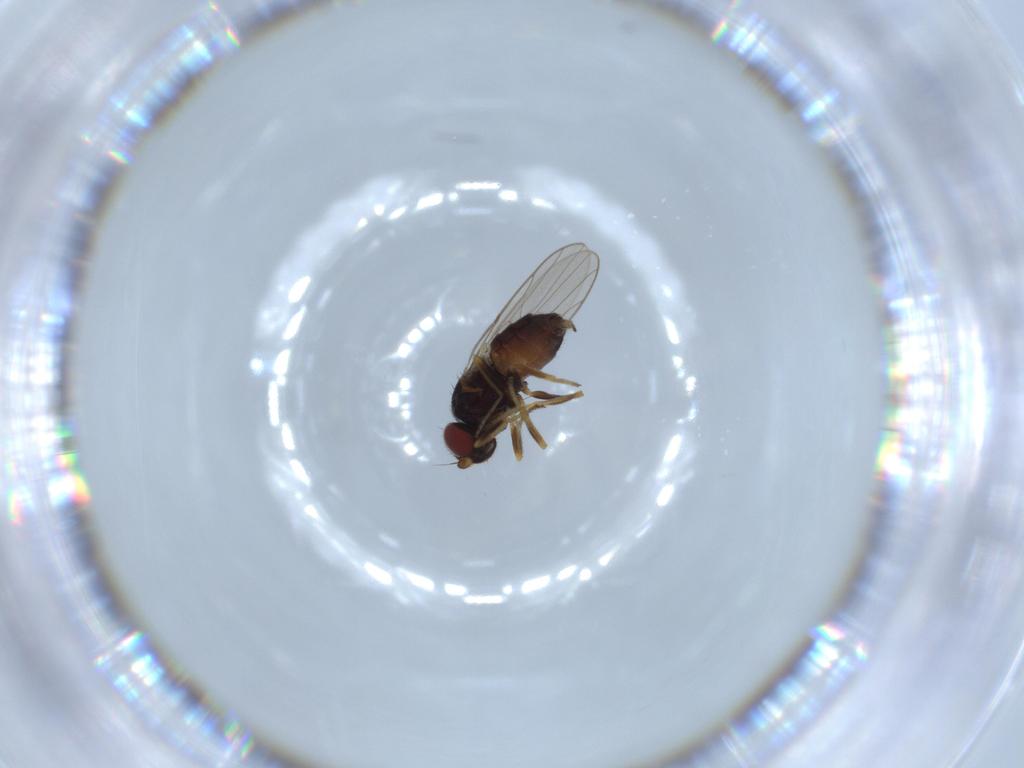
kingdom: Animalia
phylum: Arthropoda
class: Insecta
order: Diptera
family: Chloropidae
